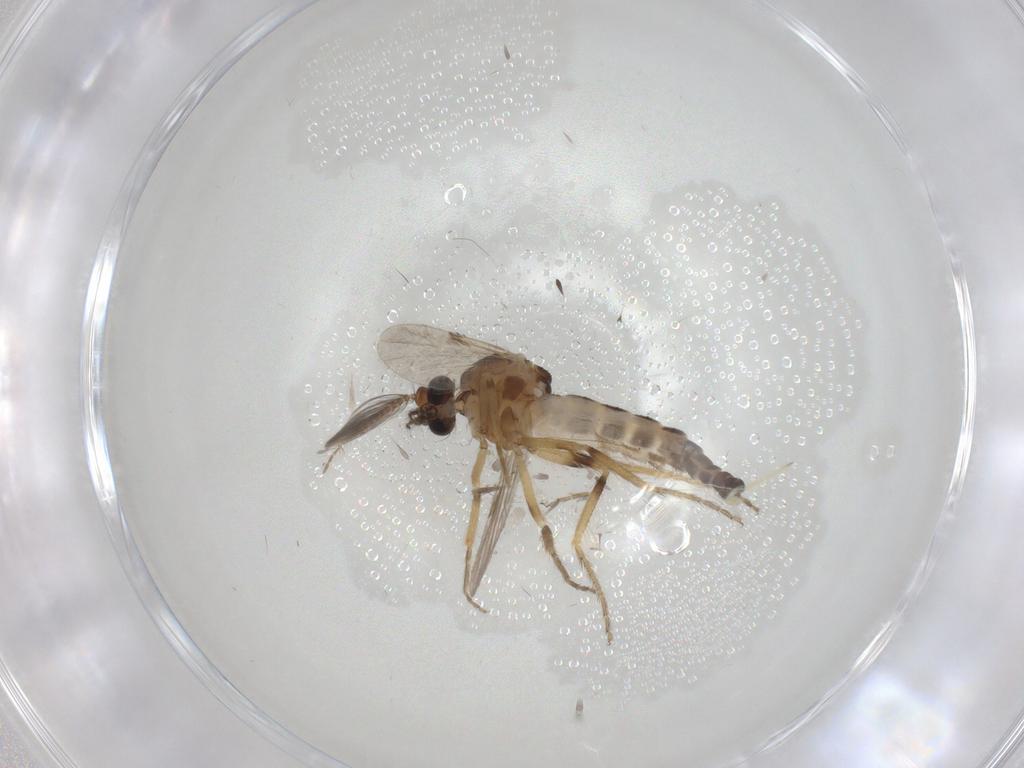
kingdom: Animalia
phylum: Arthropoda
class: Insecta
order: Diptera
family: Ceratopogonidae
